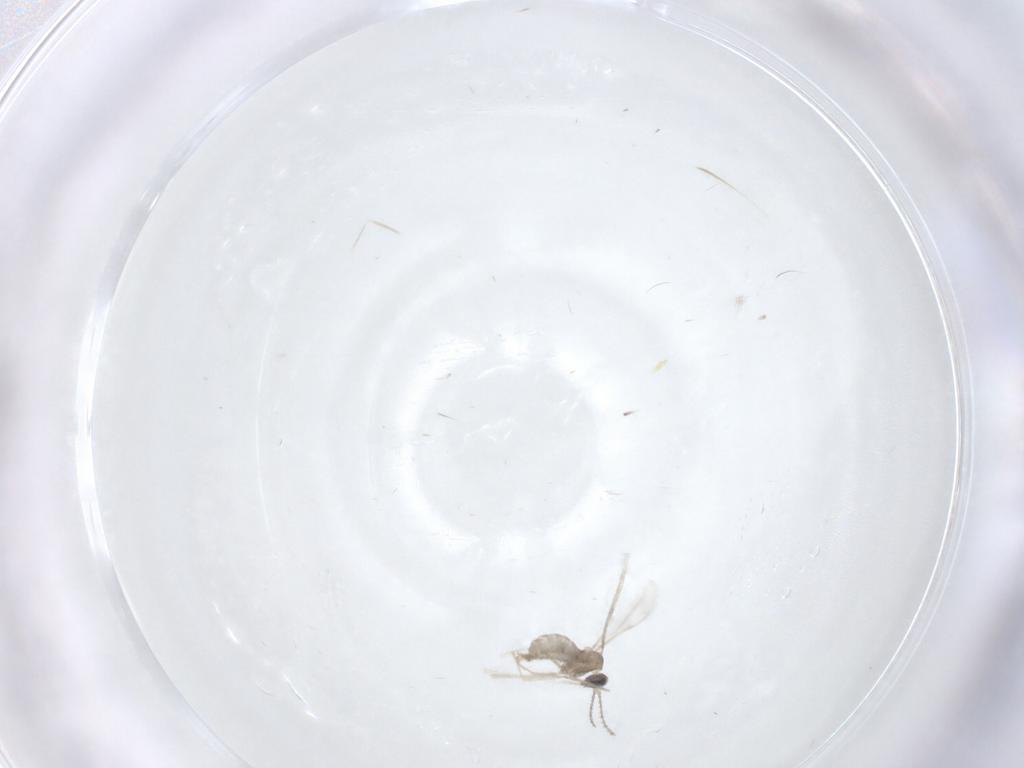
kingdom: Animalia
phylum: Arthropoda
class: Insecta
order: Diptera
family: Cecidomyiidae
